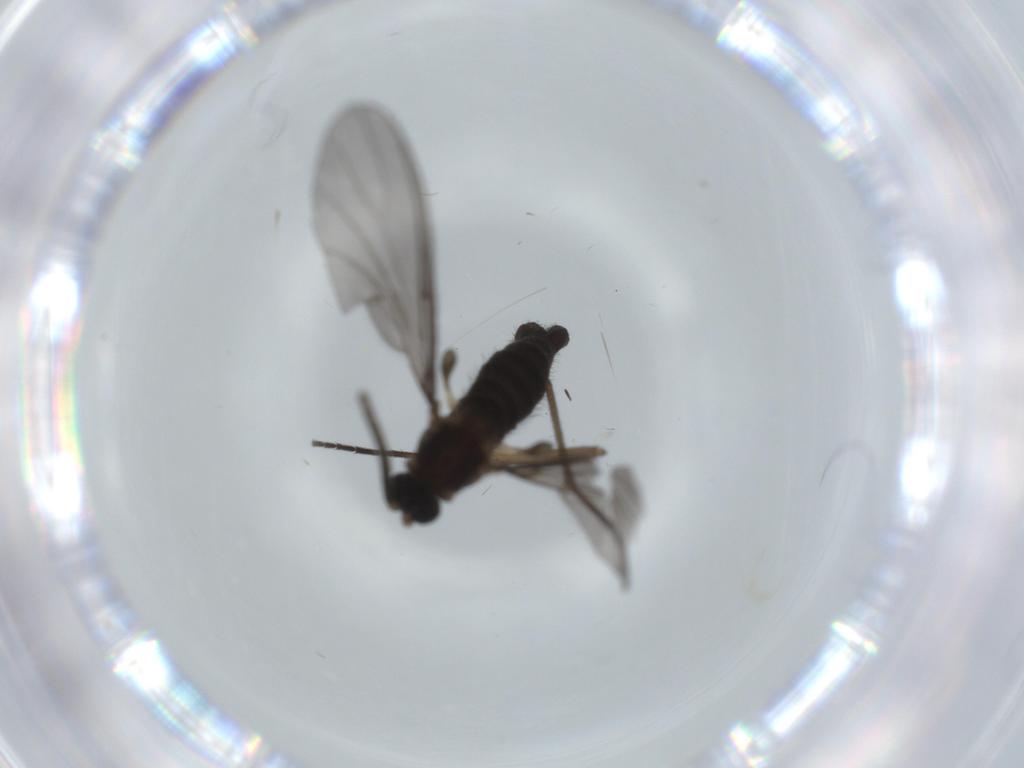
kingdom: Animalia
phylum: Arthropoda
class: Insecta
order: Diptera
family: Sciaridae
